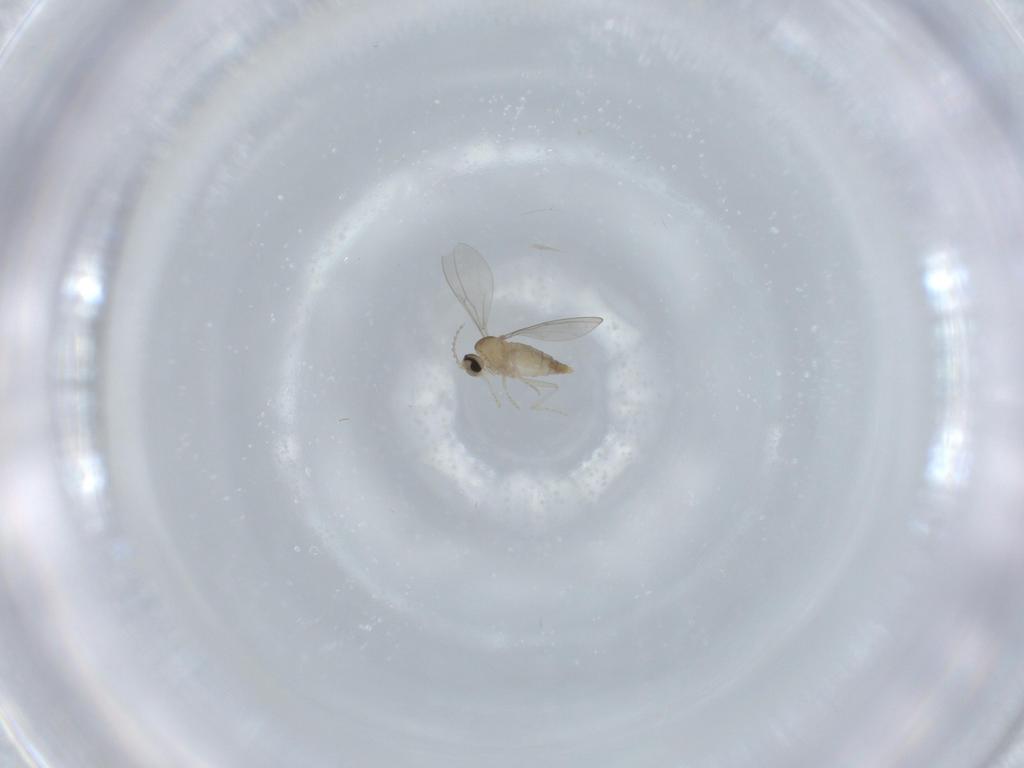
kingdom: Animalia
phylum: Arthropoda
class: Insecta
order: Diptera
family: Cecidomyiidae
